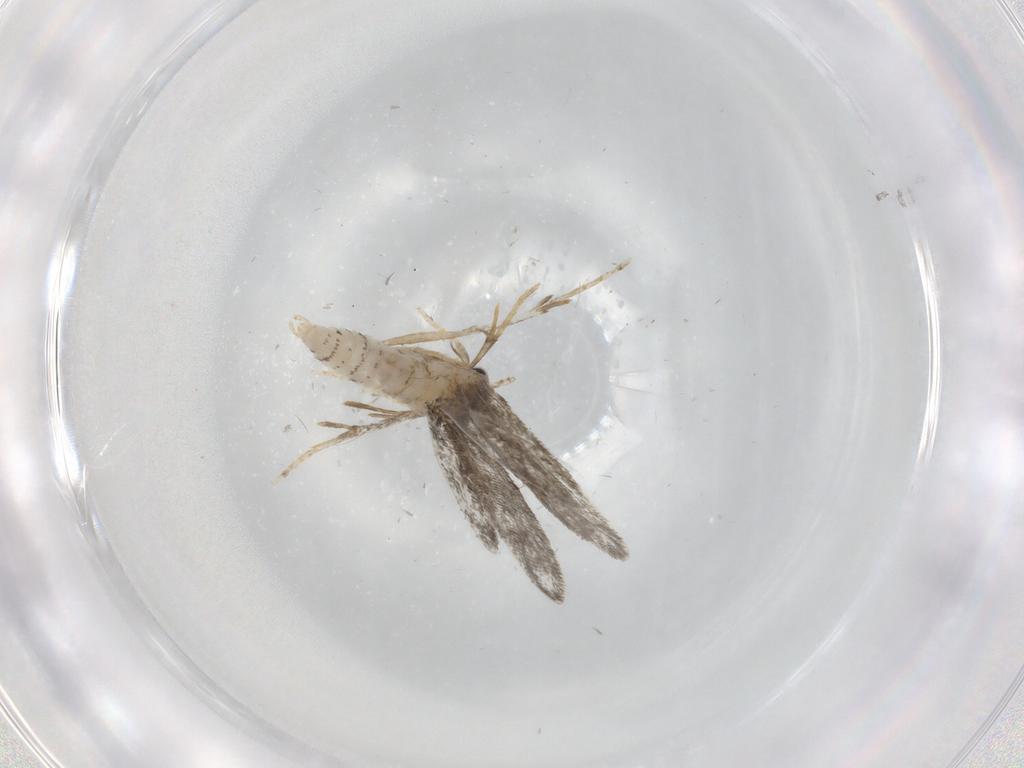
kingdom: Animalia
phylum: Arthropoda
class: Insecta
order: Lepidoptera
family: Psychidae
